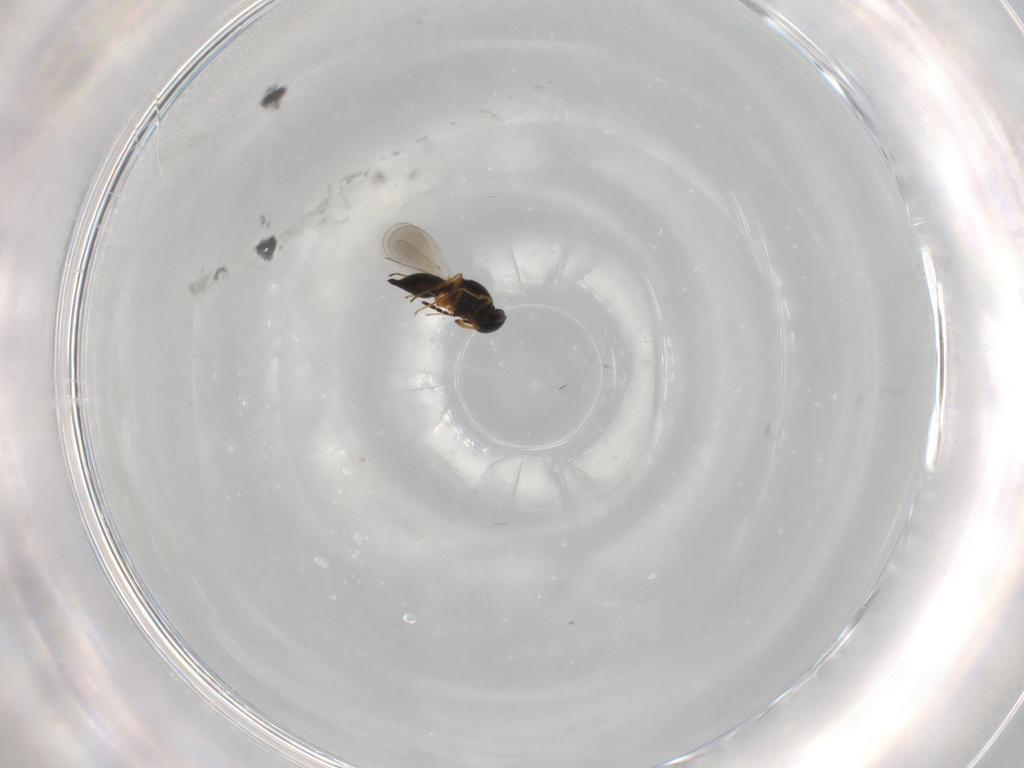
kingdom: Animalia
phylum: Arthropoda
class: Insecta
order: Hymenoptera
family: Platygastridae
